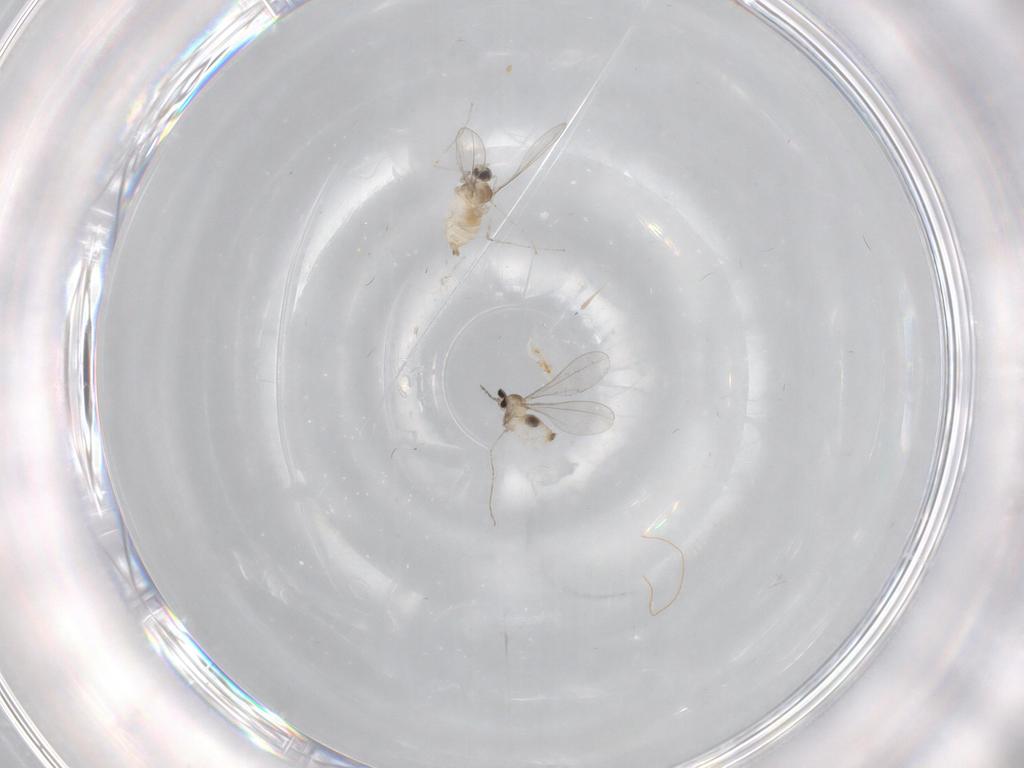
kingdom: Animalia
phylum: Arthropoda
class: Insecta
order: Diptera
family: Cecidomyiidae
